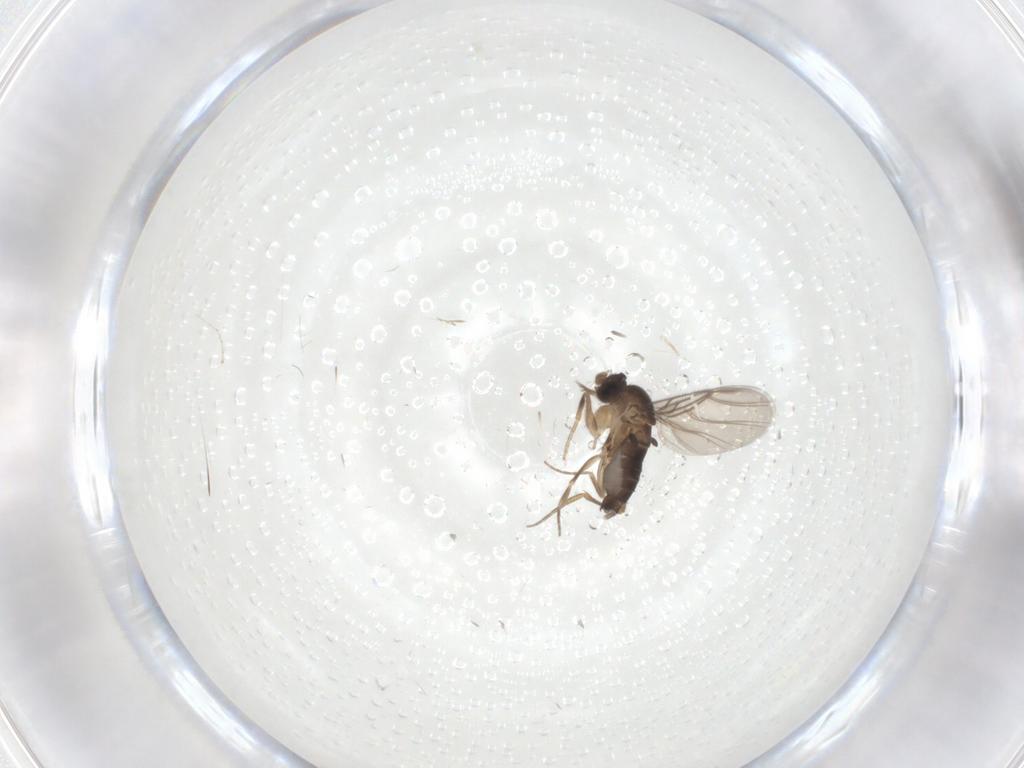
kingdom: Animalia
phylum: Arthropoda
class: Insecta
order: Diptera
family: Phoridae
